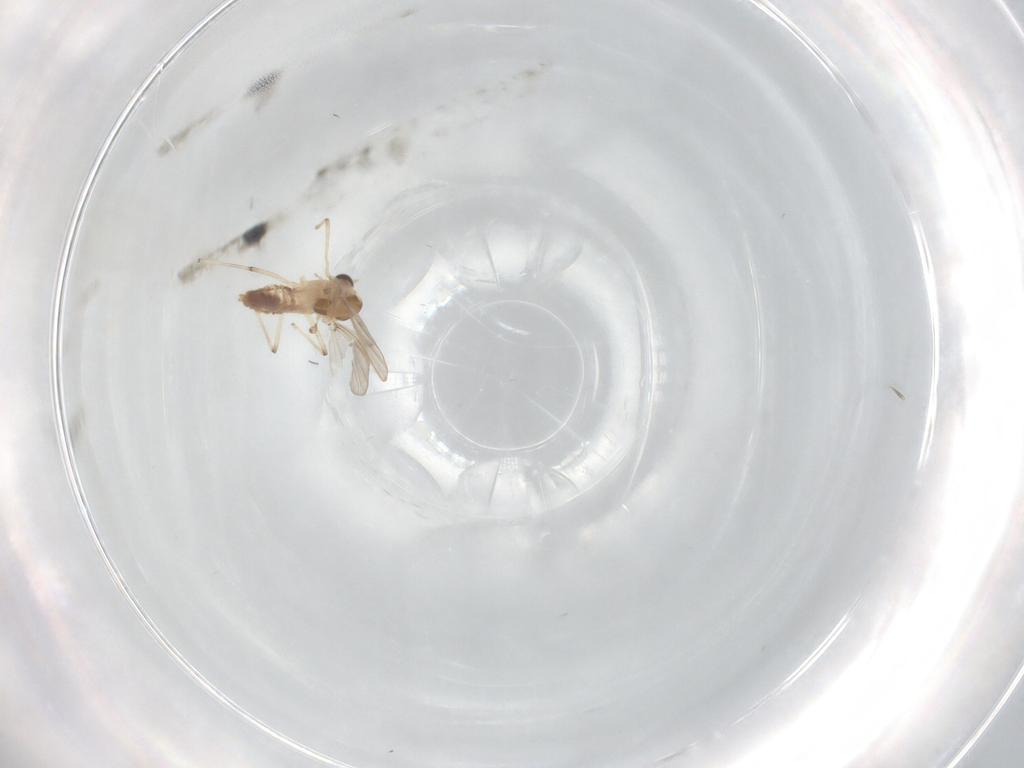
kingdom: Animalia
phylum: Arthropoda
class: Insecta
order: Diptera
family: Chironomidae
